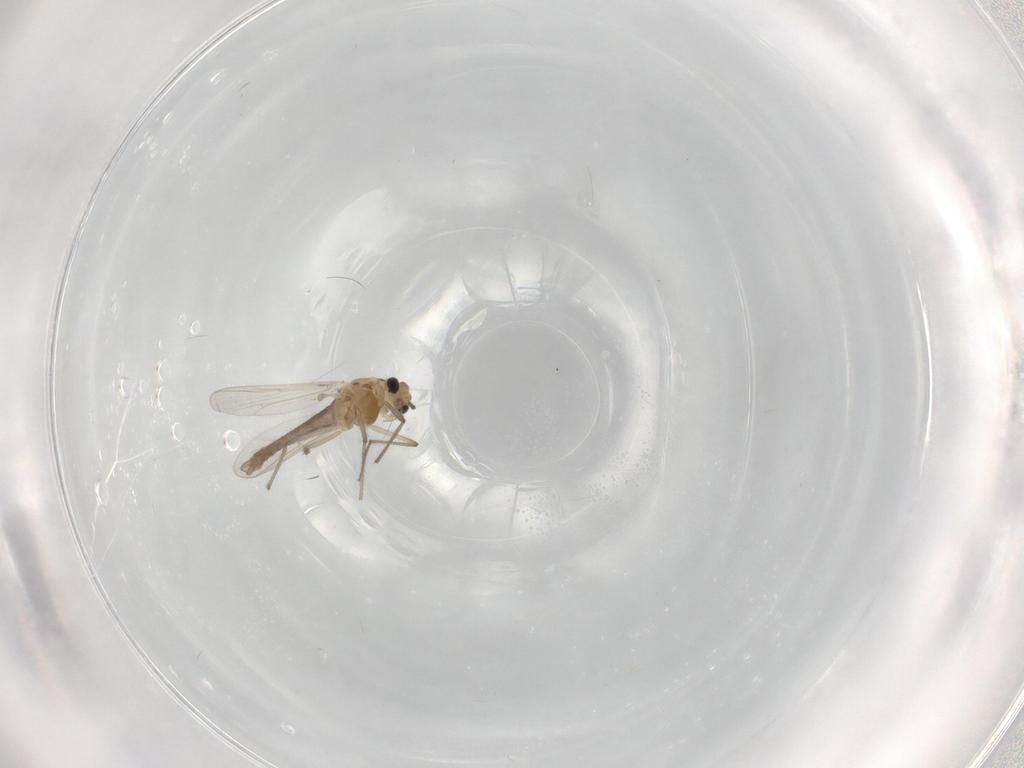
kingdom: Animalia
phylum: Arthropoda
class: Insecta
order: Diptera
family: Chironomidae
